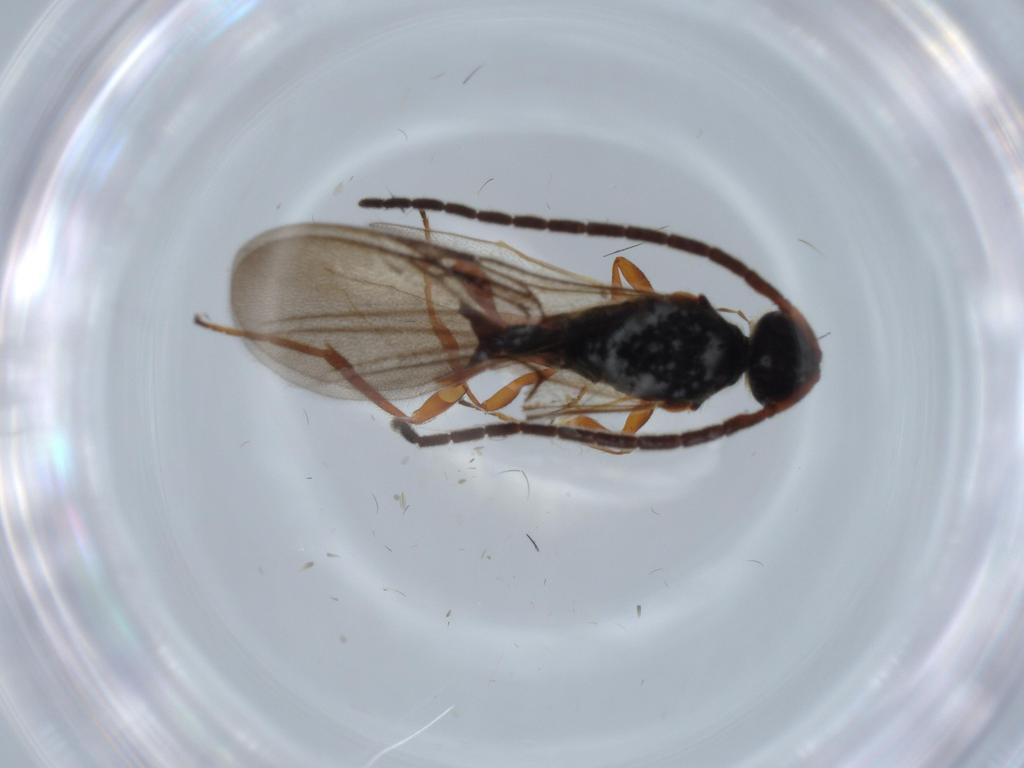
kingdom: Animalia
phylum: Arthropoda
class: Insecta
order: Hymenoptera
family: Diapriidae
